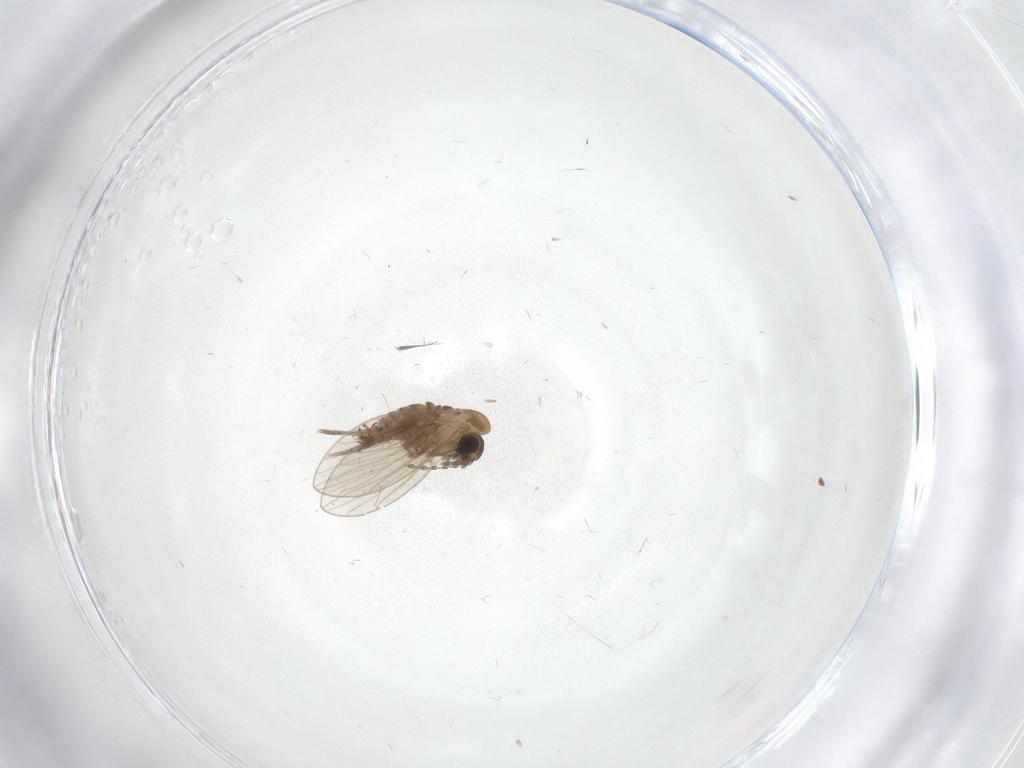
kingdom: Animalia
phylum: Arthropoda
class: Insecta
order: Diptera
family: Psychodidae
